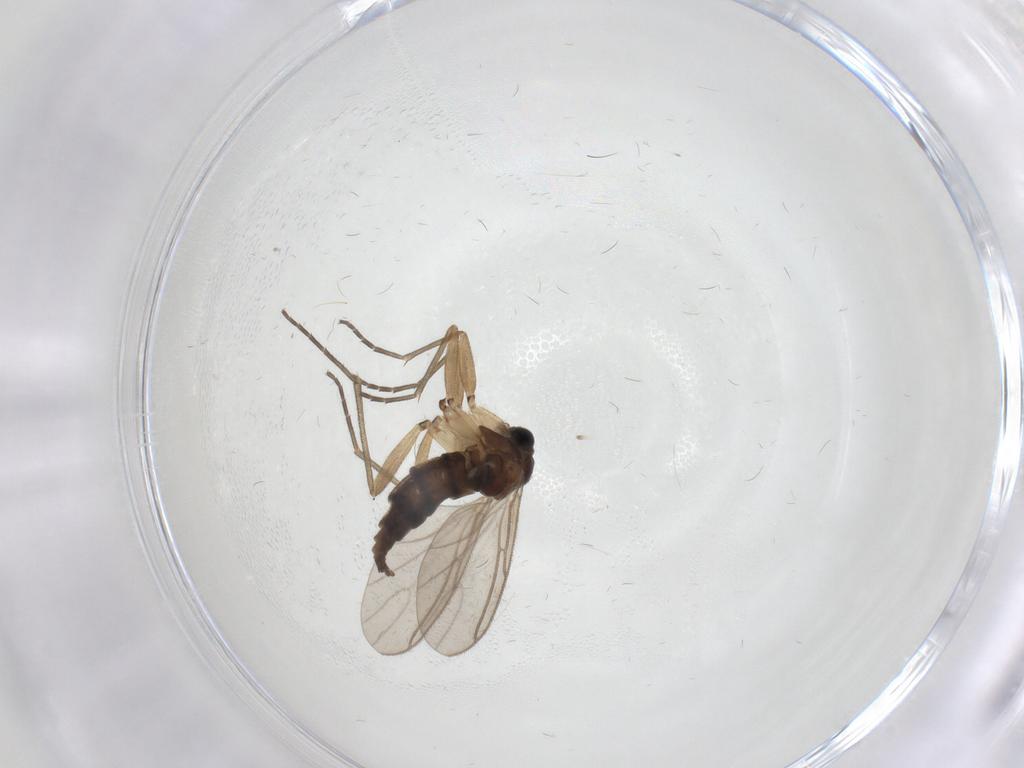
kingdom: Animalia
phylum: Arthropoda
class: Insecta
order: Diptera
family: Sciaridae
